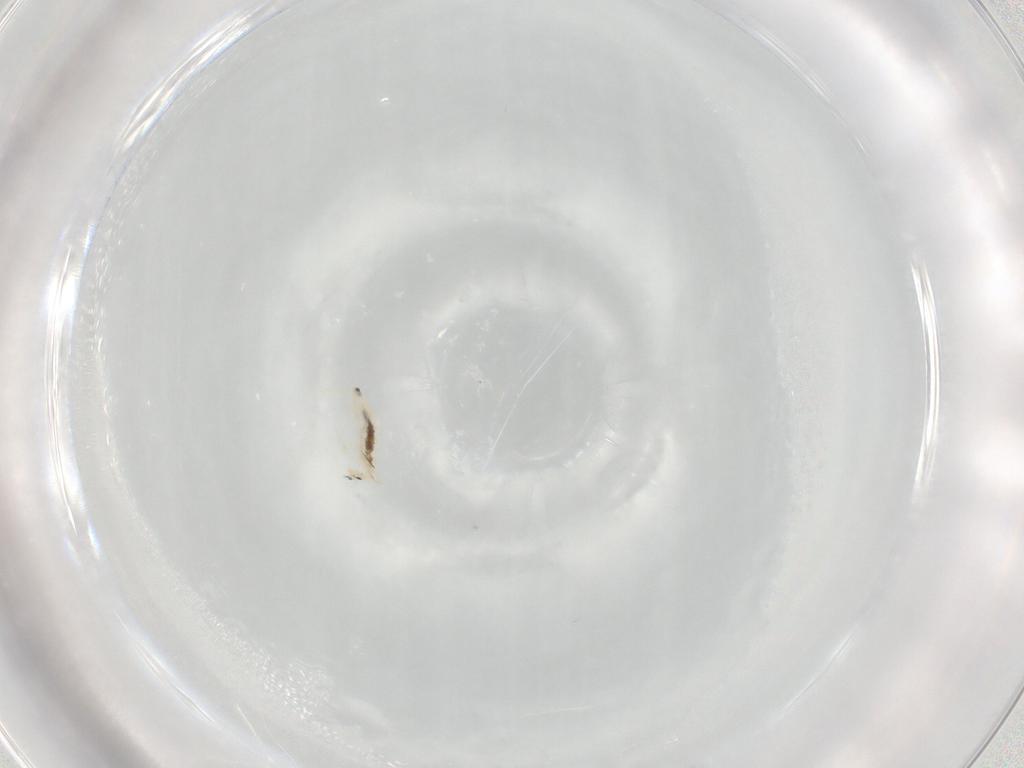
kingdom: Animalia
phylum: Arthropoda
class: Collembola
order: Entomobryomorpha
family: Entomobryidae
